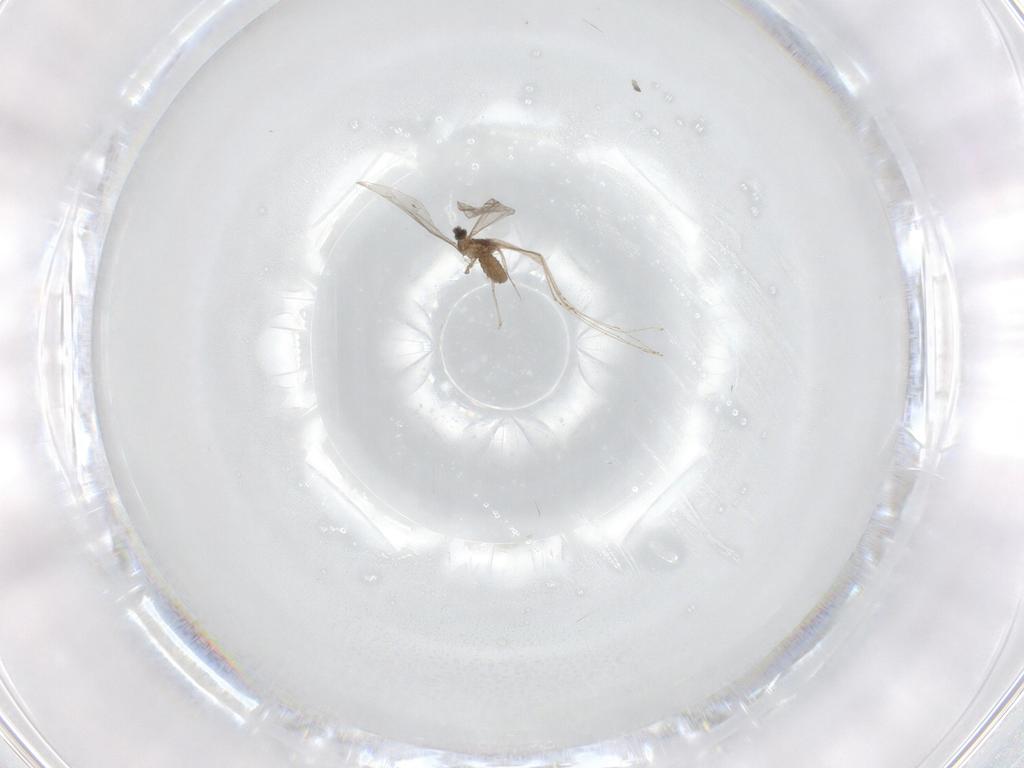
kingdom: Animalia
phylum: Arthropoda
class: Insecta
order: Diptera
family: Cecidomyiidae
